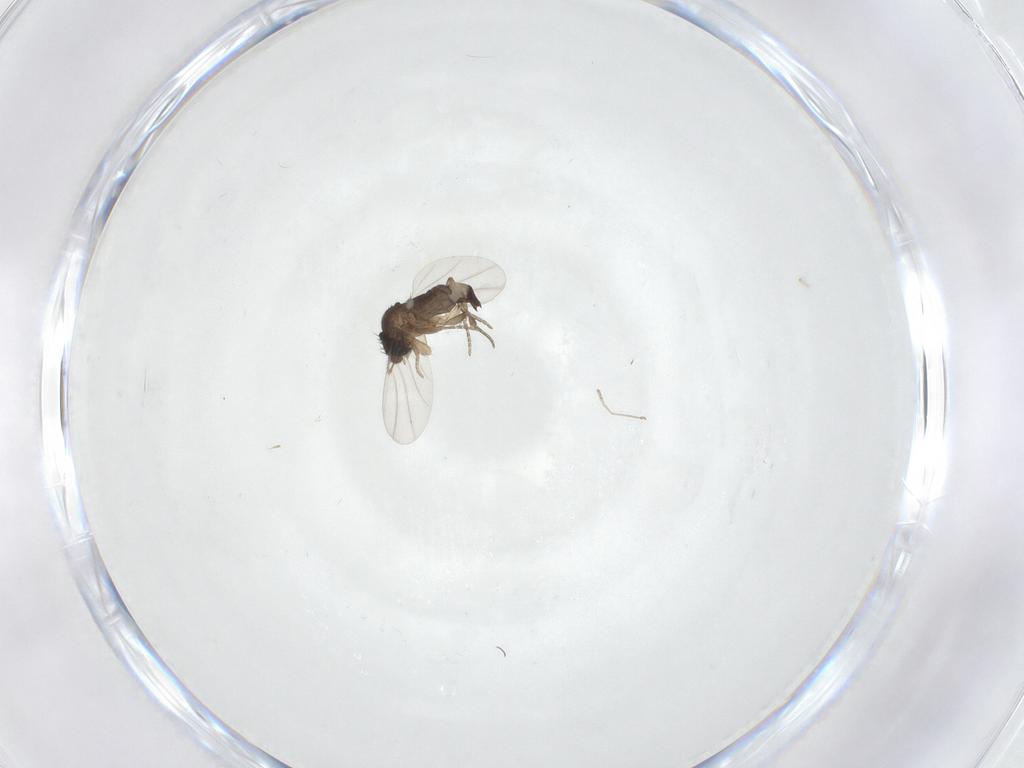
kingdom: Animalia
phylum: Arthropoda
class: Insecta
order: Diptera
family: Phoridae
